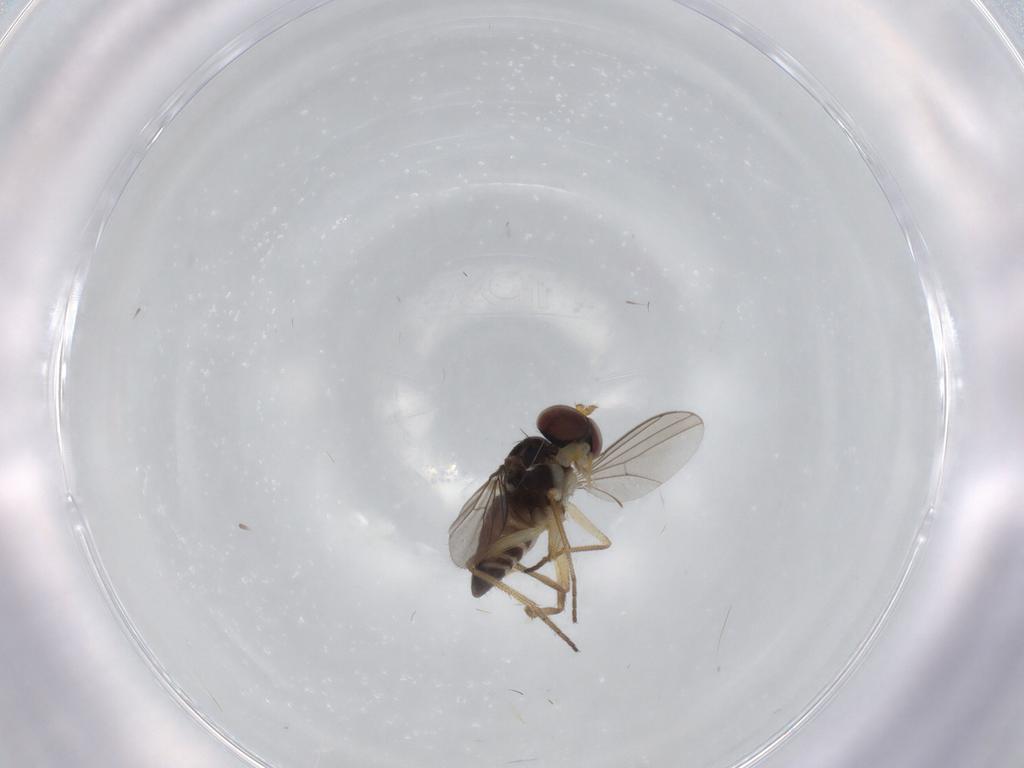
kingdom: Animalia
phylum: Arthropoda
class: Insecta
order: Diptera
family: Dolichopodidae
